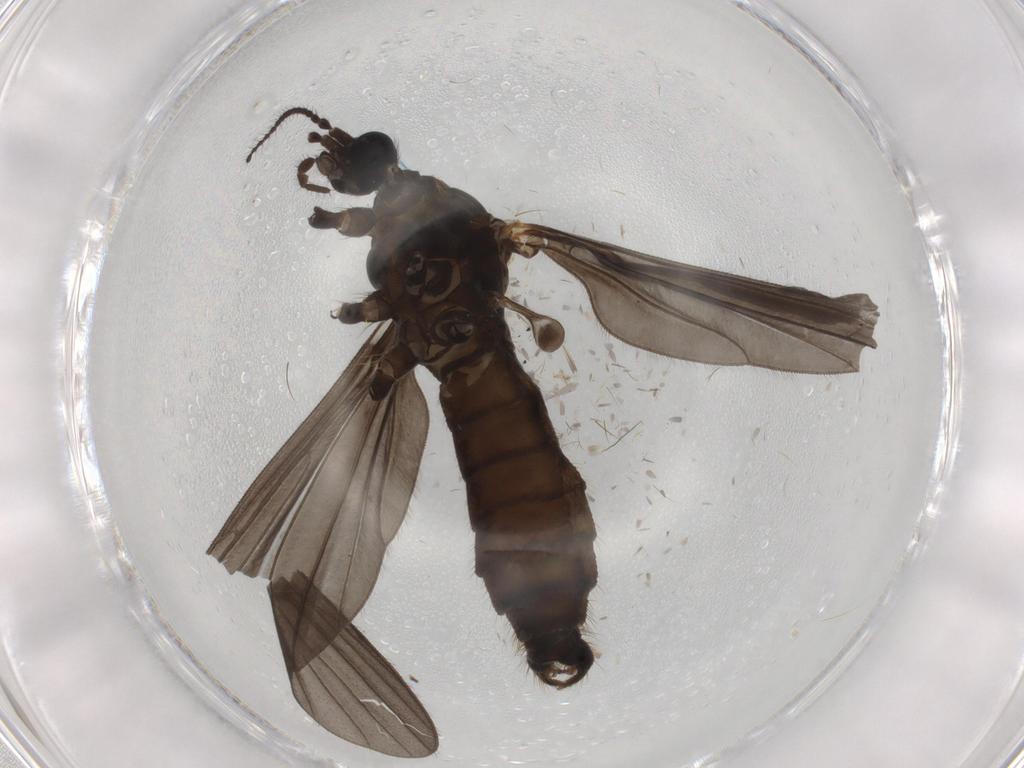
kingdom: Animalia
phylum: Arthropoda
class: Insecta
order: Diptera
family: Limoniidae
